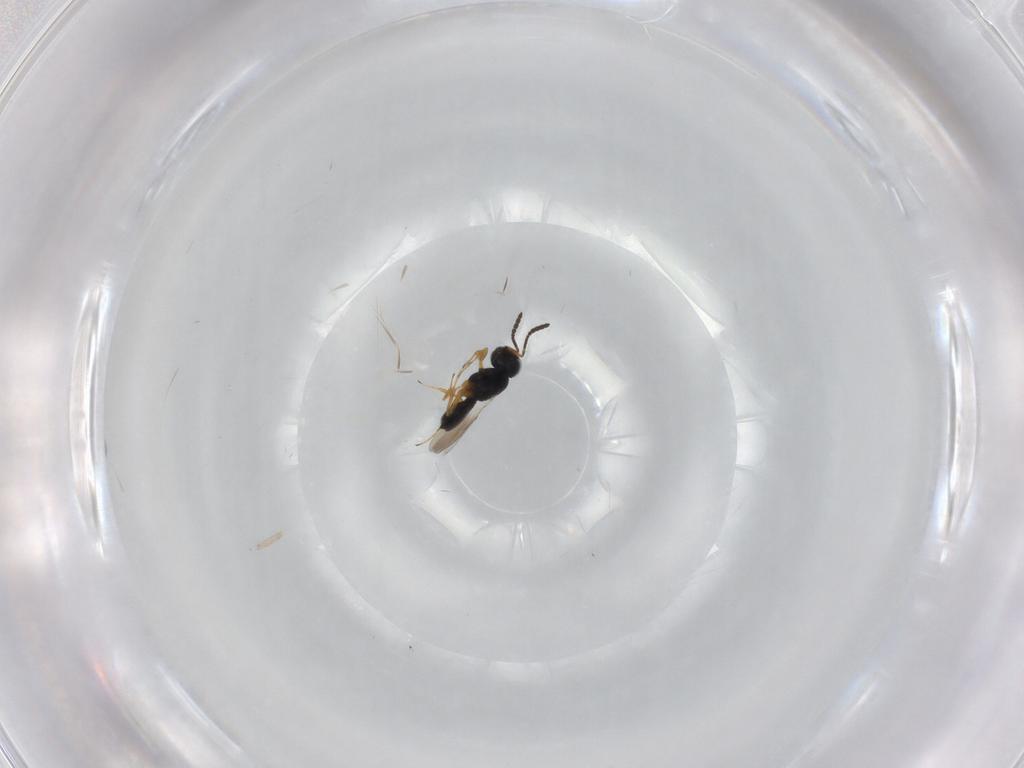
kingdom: Animalia
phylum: Arthropoda
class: Insecta
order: Hymenoptera
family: Scelionidae
